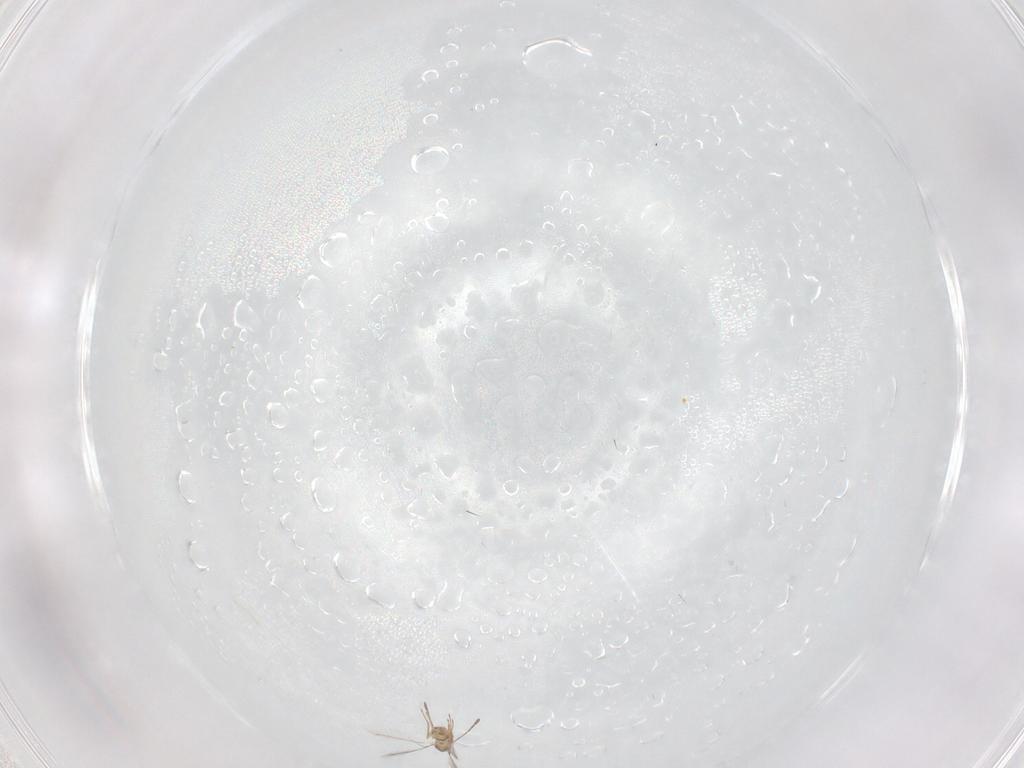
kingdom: Animalia
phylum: Arthropoda
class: Insecta
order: Hymenoptera
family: Mymaridae
